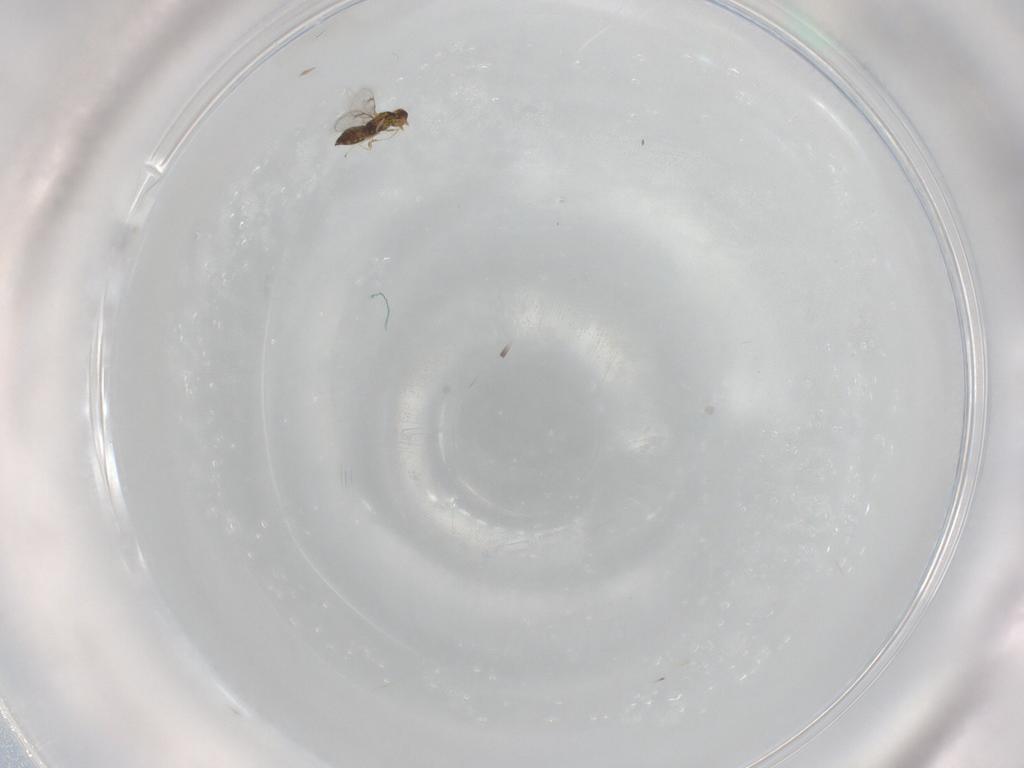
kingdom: Animalia
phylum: Arthropoda
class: Insecta
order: Hymenoptera
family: Eulophidae
